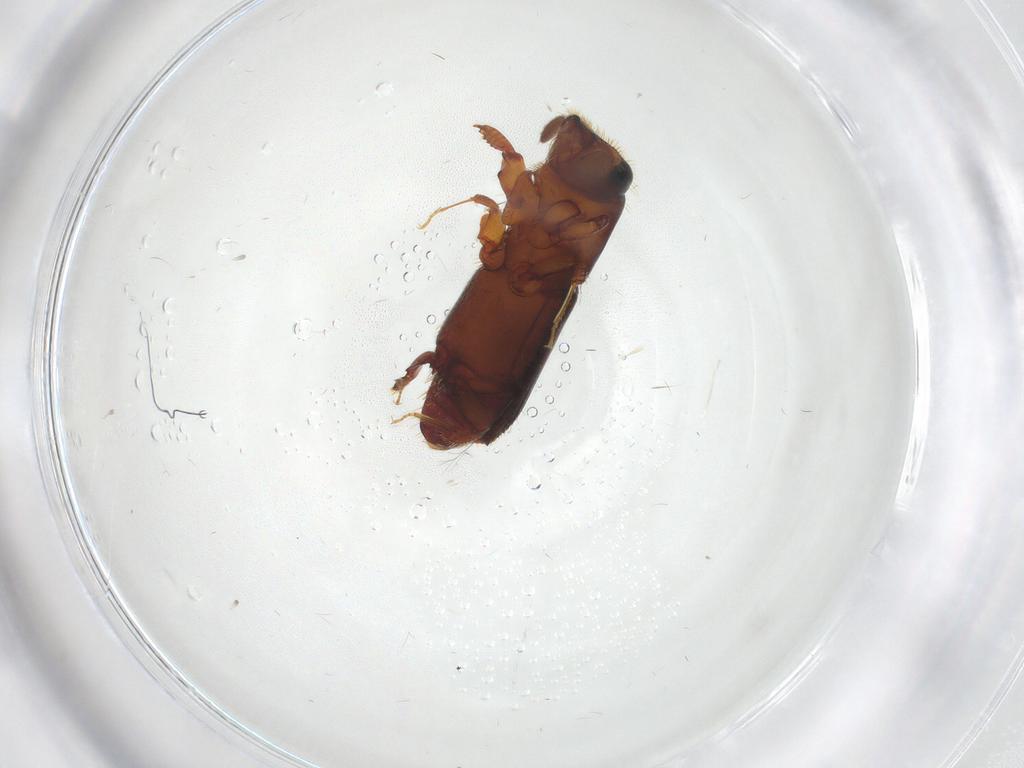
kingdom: Animalia
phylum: Arthropoda
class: Insecta
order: Coleoptera
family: Curculionidae
